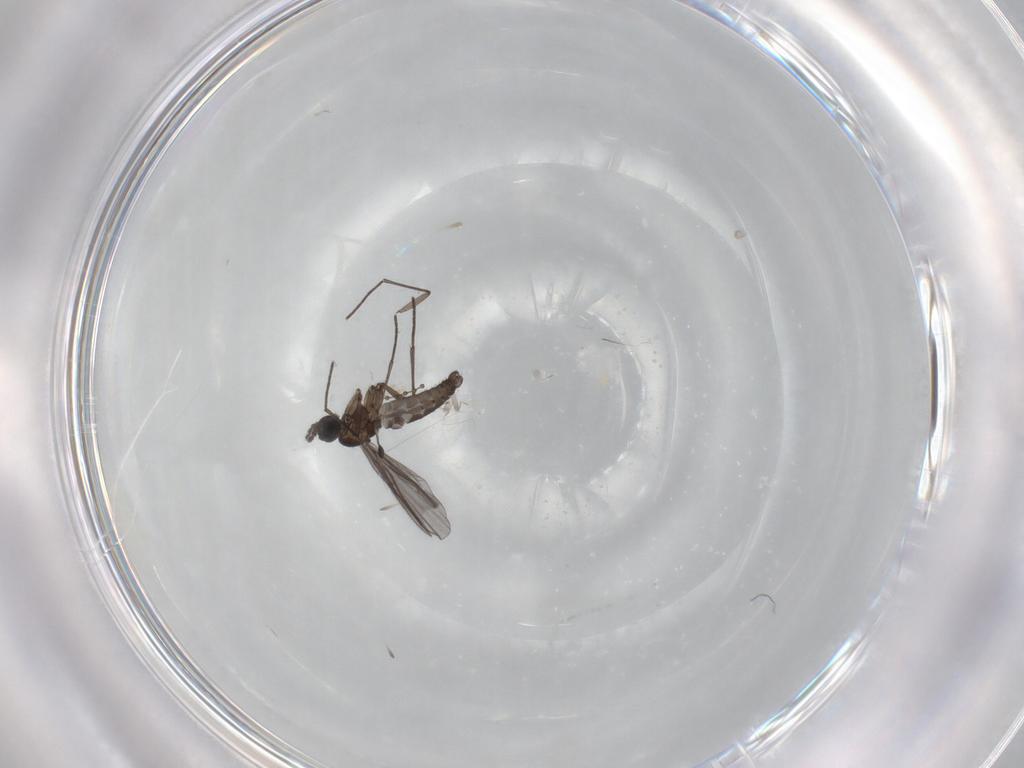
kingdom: Animalia
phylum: Arthropoda
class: Insecta
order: Diptera
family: Cecidomyiidae
